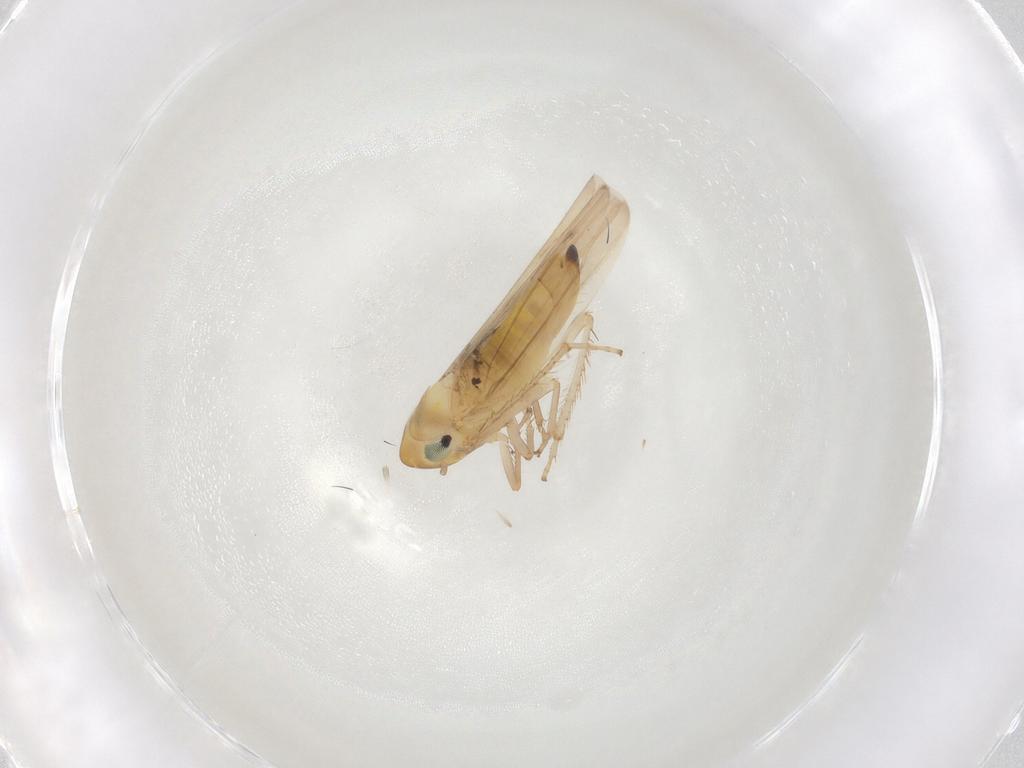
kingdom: Animalia
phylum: Arthropoda
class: Insecta
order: Hemiptera
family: Cicadellidae
